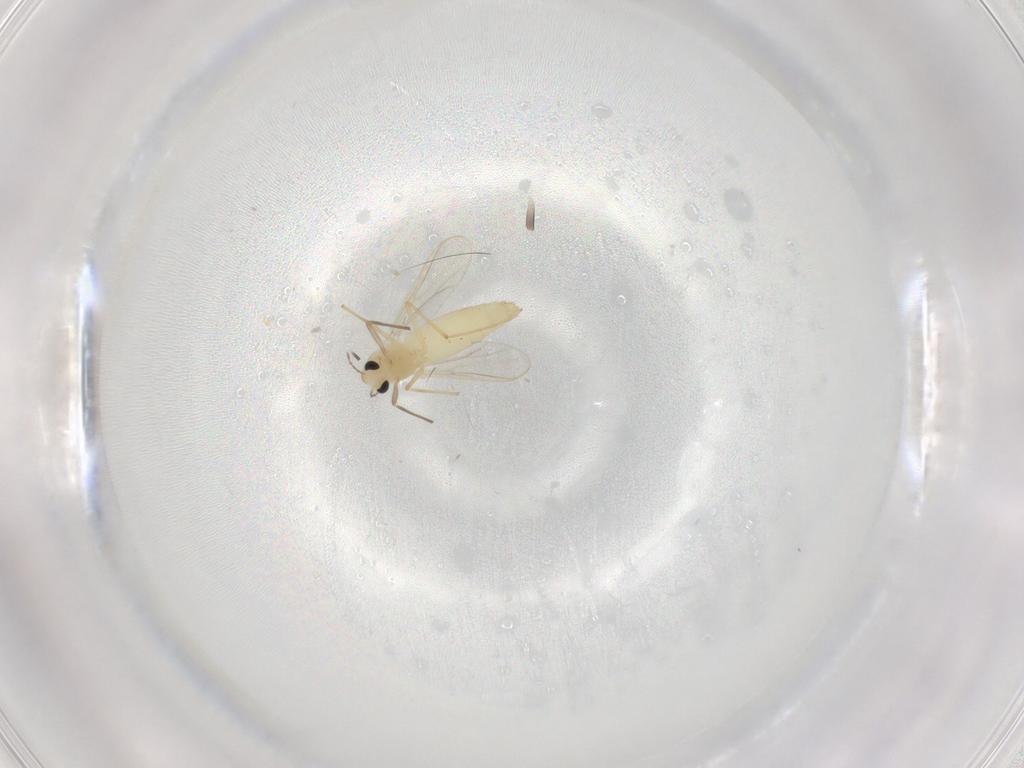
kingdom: Animalia
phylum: Arthropoda
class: Insecta
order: Diptera
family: Chironomidae
